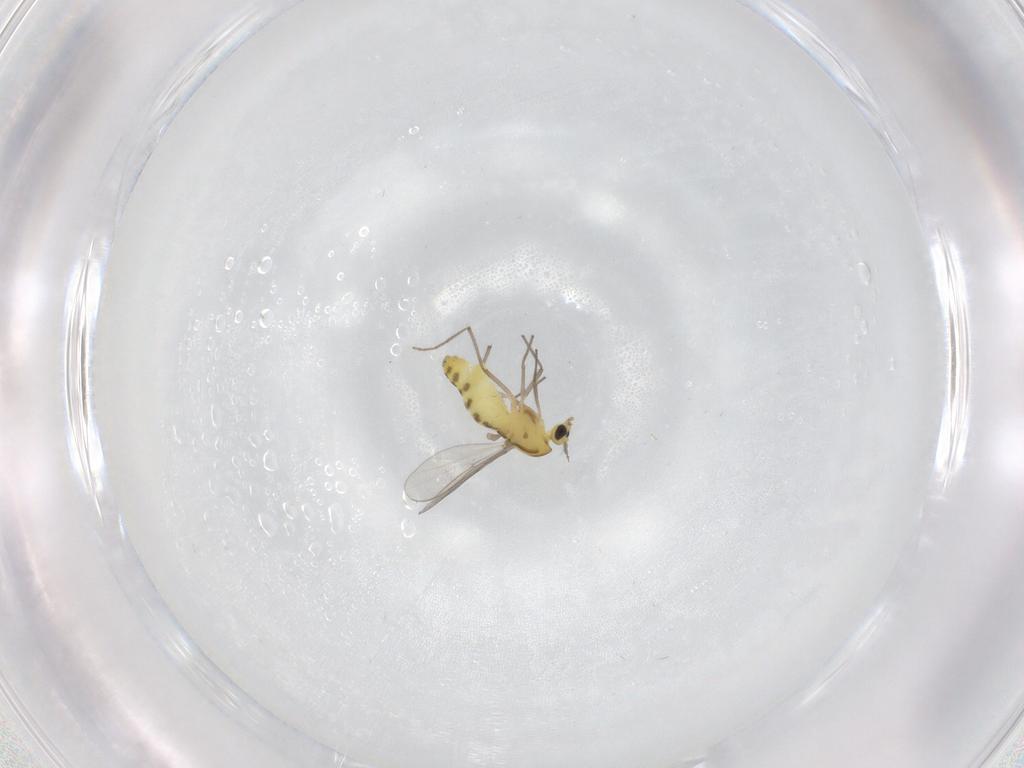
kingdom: Animalia
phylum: Arthropoda
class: Insecta
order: Diptera
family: Chironomidae
